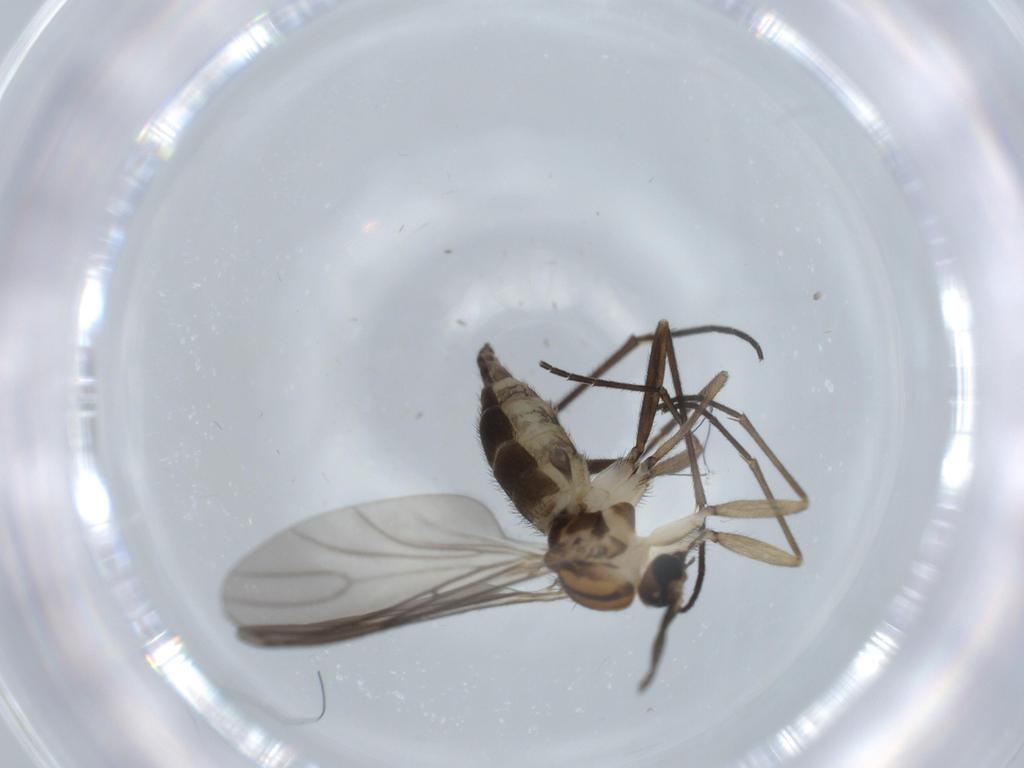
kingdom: Animalia
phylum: Arthropoda
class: Insecta
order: Diptera
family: Sciaridae
